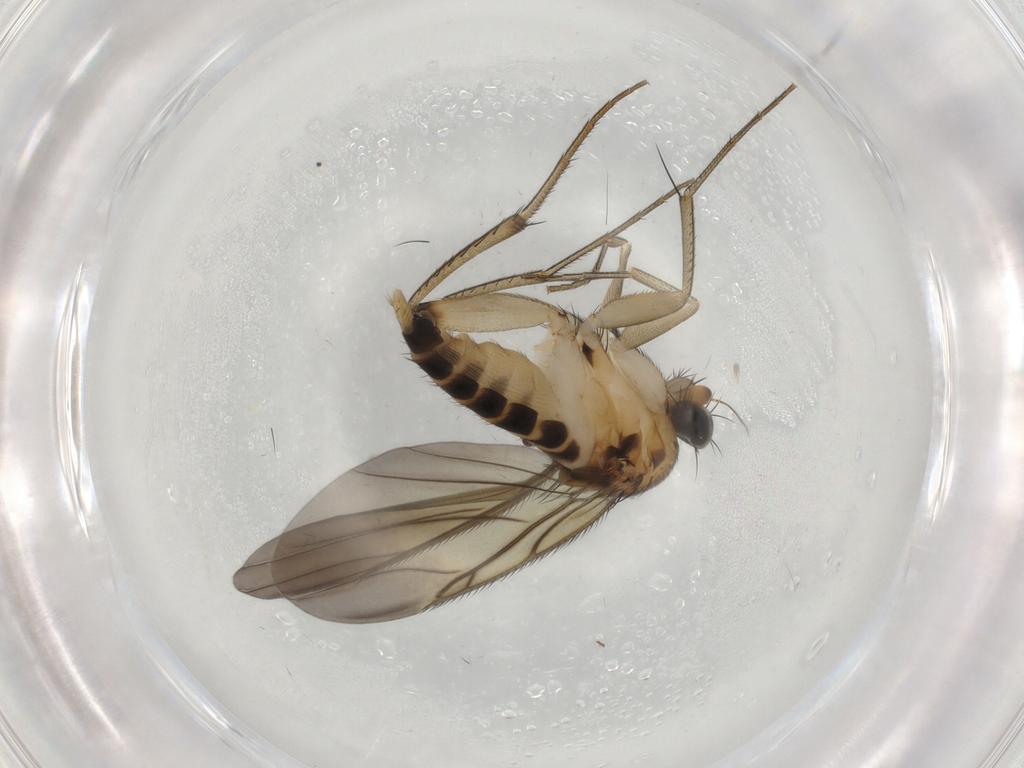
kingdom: Animalia
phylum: Arthropoda
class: Insecta
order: Diptera
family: Phoridae
